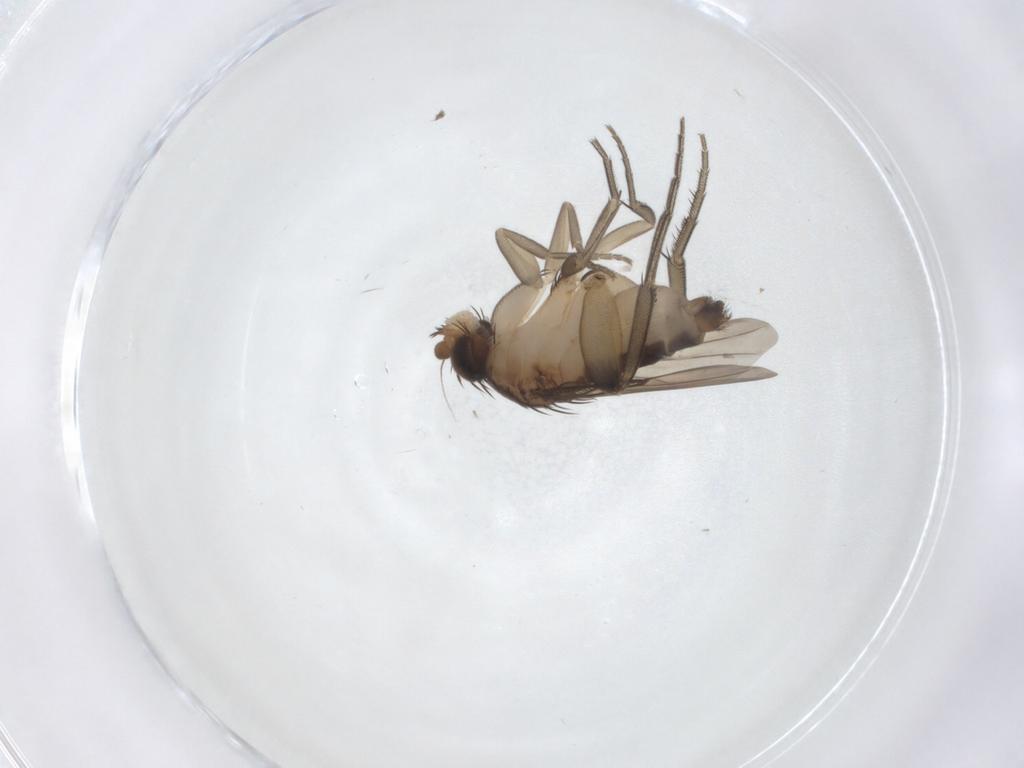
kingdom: Animalia
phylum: Arthropoda
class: Insecta
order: Diptera
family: Phoridae
